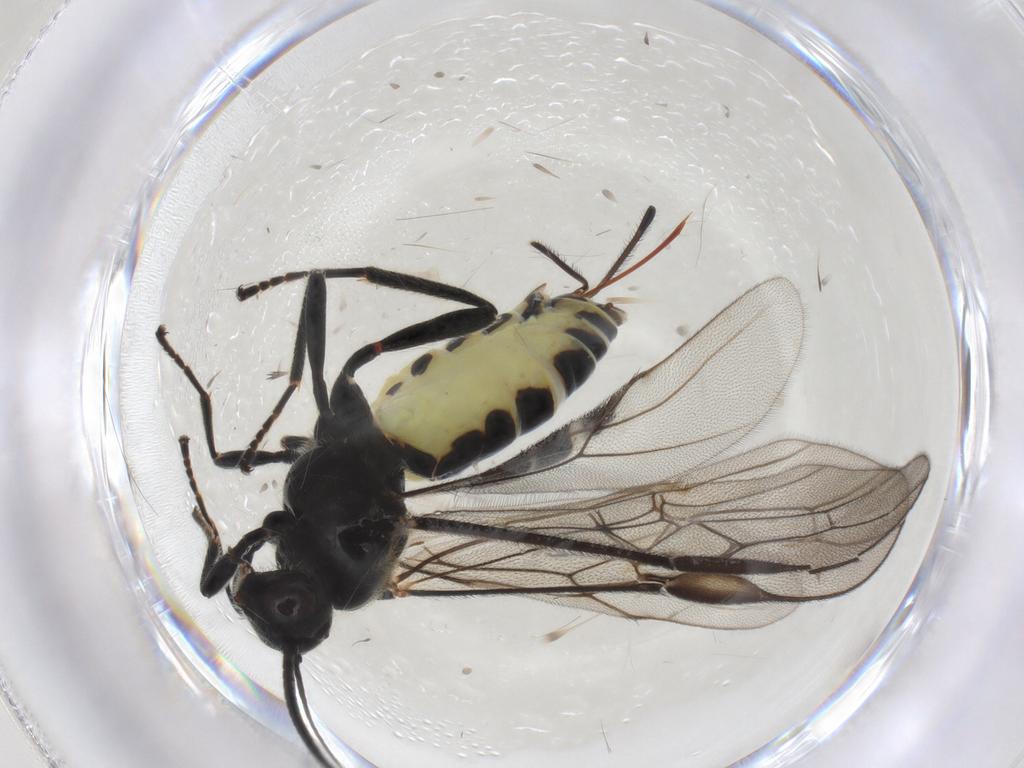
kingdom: Animalia
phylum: Arthropoda
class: Insecta
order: Hymenoptera
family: Braconidae
